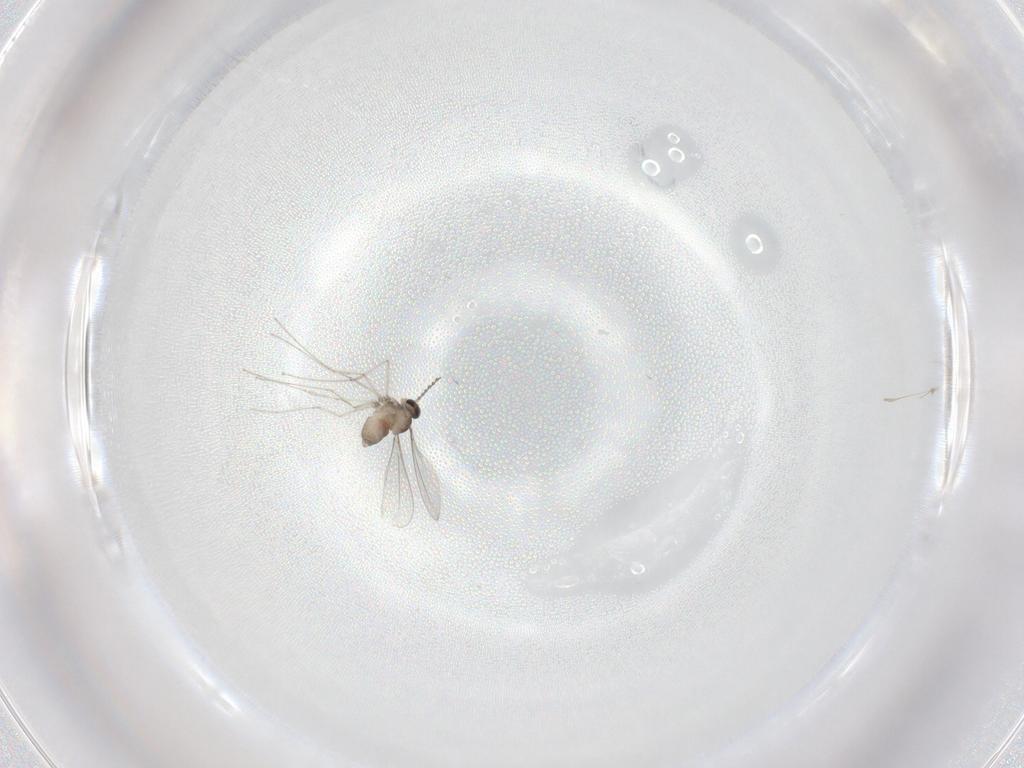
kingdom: Animalia
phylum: Arthropoda
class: Insecta
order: Diptera
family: Cecidomyiidae
